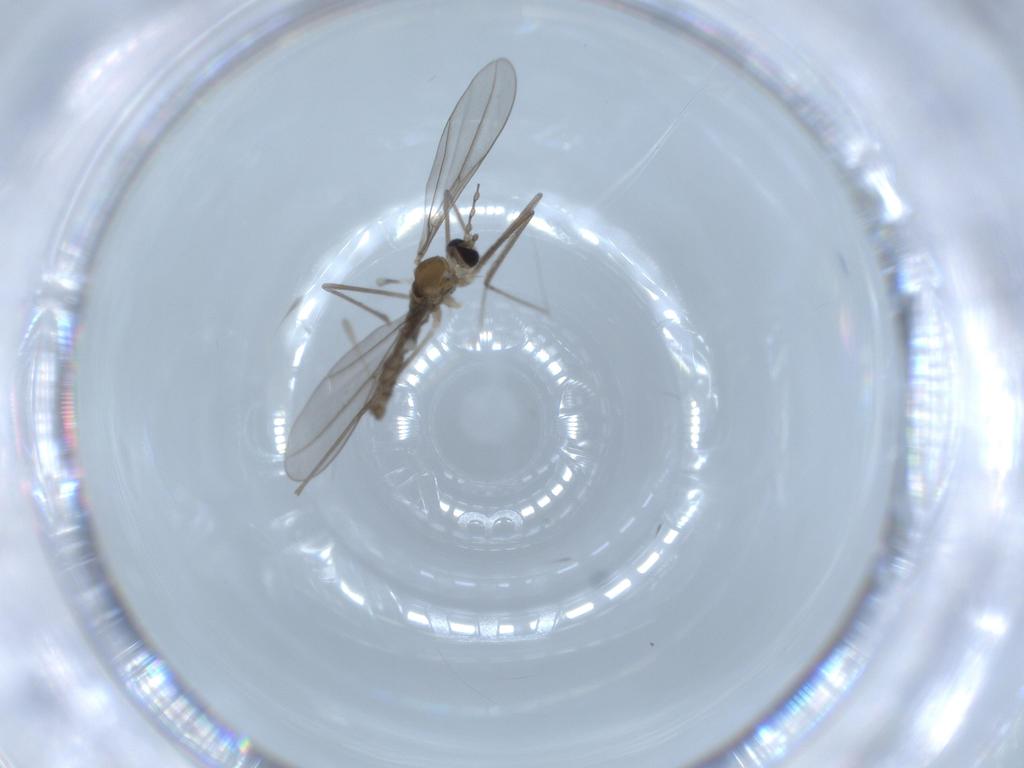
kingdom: Animalia
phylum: Arthropoda
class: Insecta
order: Diptera
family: Cecidomyiidae
